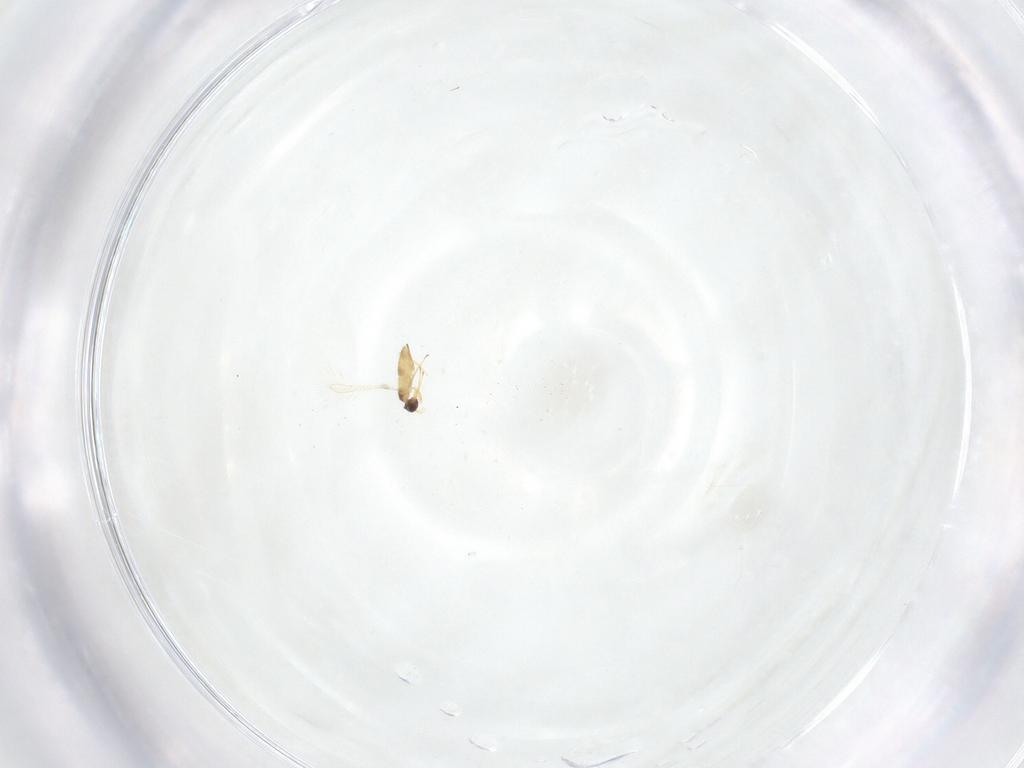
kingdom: Animalia
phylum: Arthropoda
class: Insecta
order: Hymenoptera
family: Mymaridae
